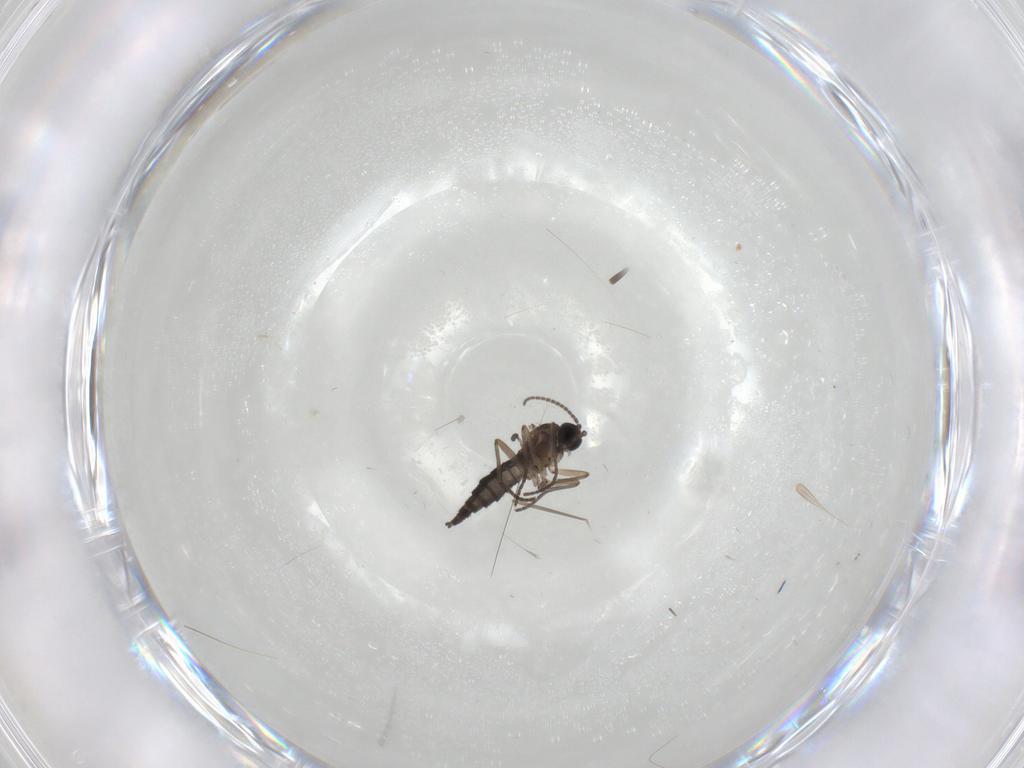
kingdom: Animalia
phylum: Arthropoda
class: Insecta
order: Diptera
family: Sciaridae
